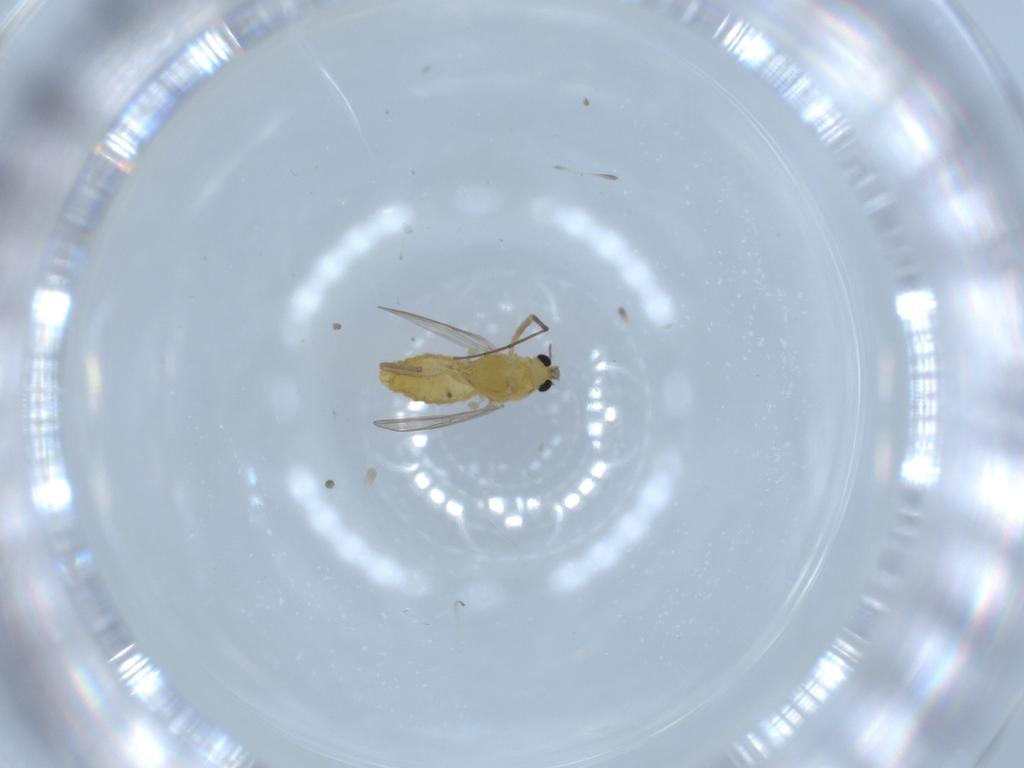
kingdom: Animalia
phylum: Arthropoda
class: Insecta
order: Diptera
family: Chironomidae
